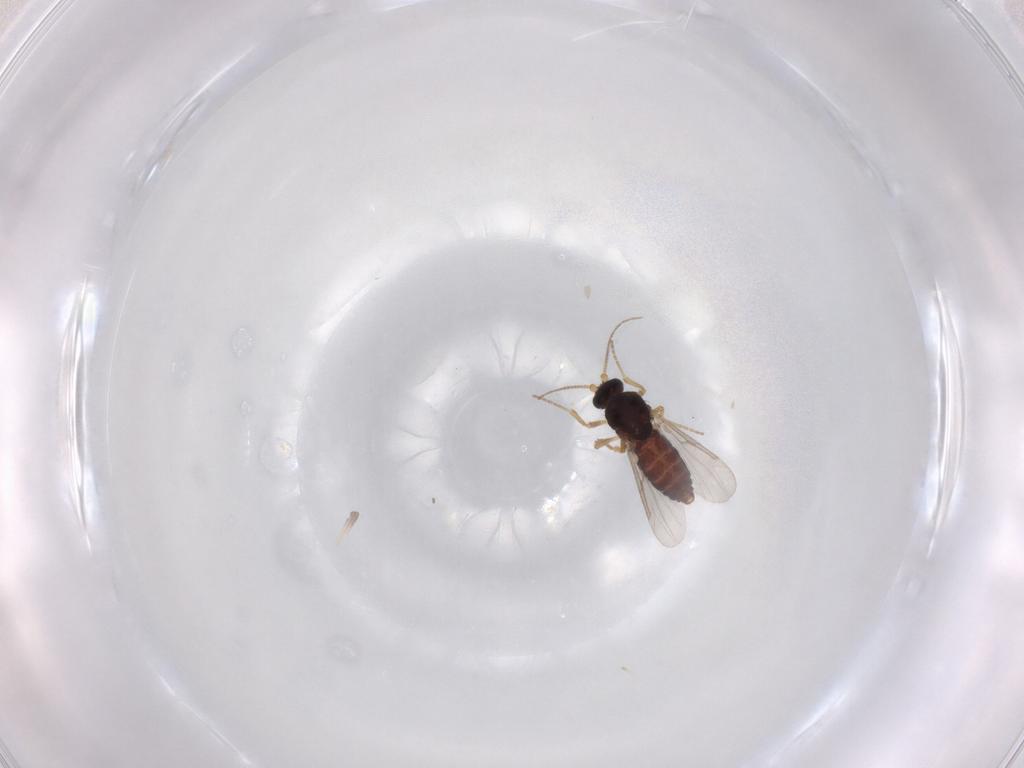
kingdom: Animalia
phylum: Arthropoda
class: Insecta
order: Diptera
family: Ceratopogonidae
